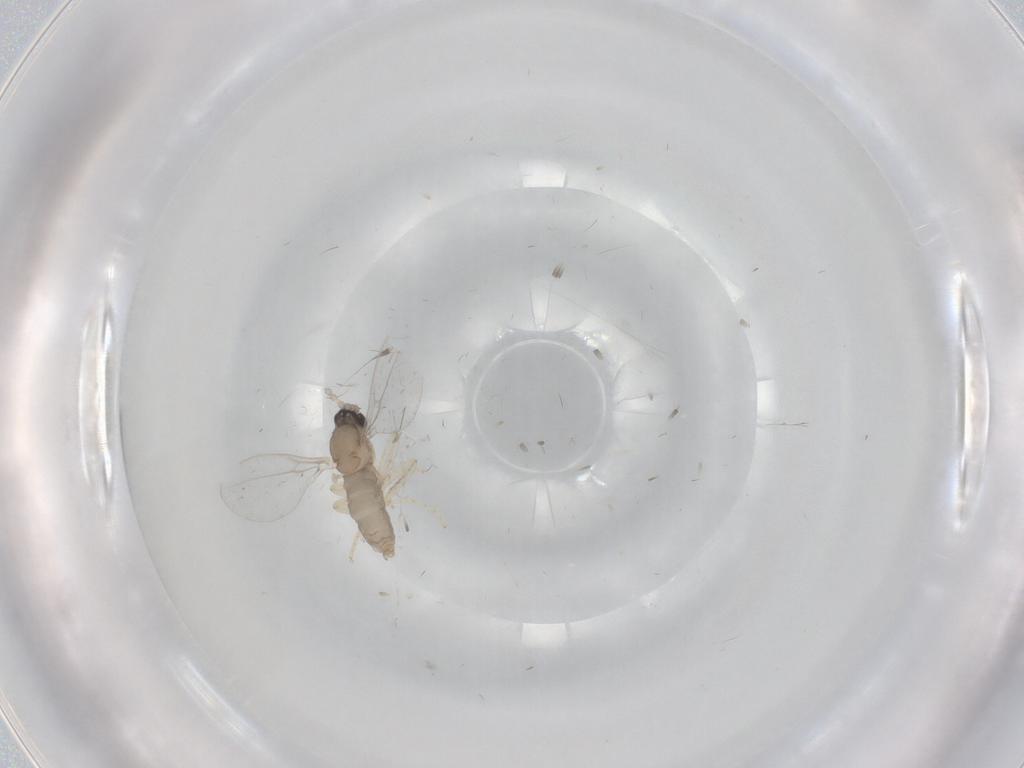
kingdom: Animalia
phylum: Arthropoda
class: Insecta
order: Diptera
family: Cecidomyiidae
